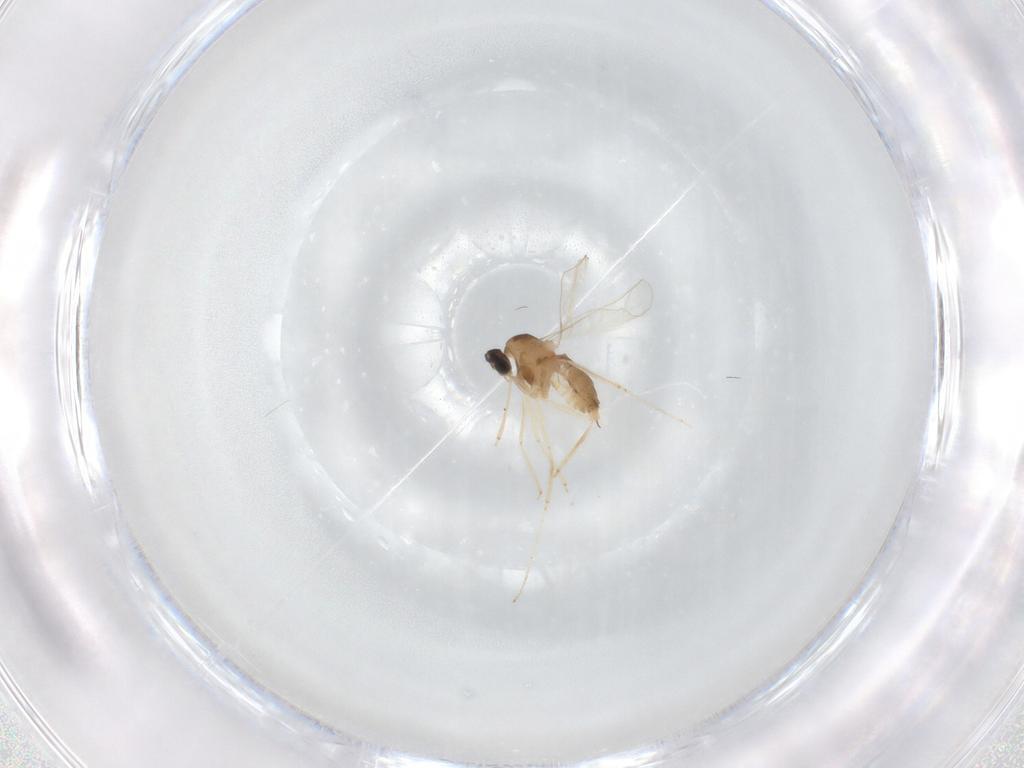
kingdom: Animalia
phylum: Arthropoda
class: Insecta
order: Diptera
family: Cecidomyiidae
